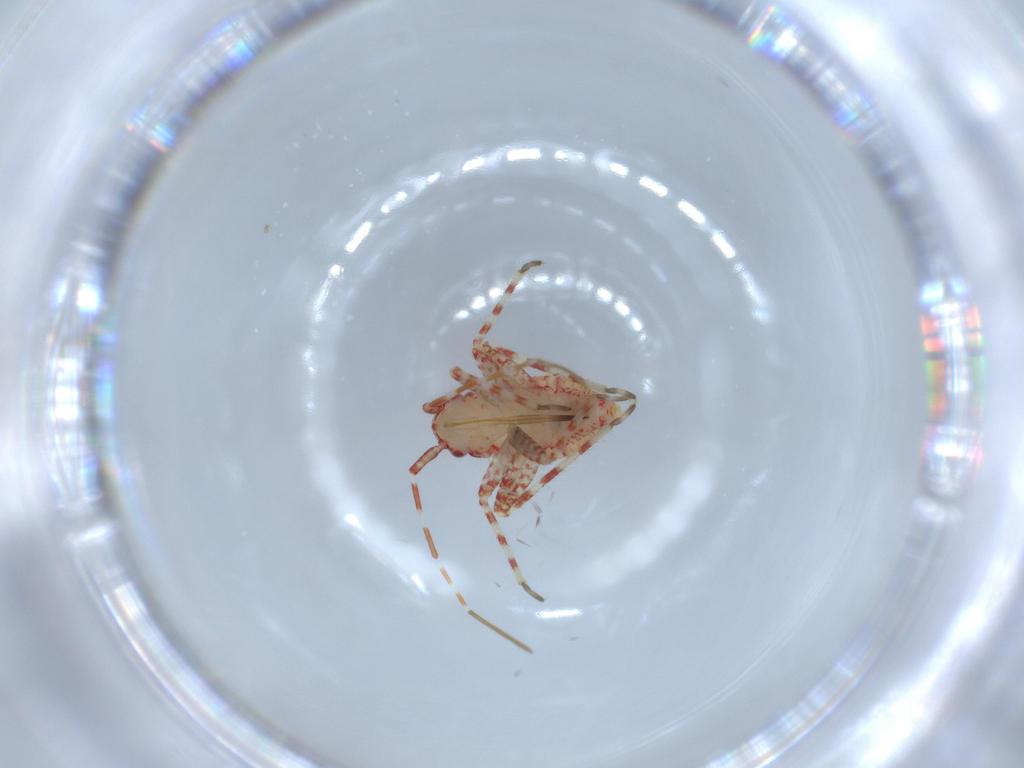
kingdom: Animalia
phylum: Arthropoda
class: Insecta
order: Hemiptera
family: Miridae
